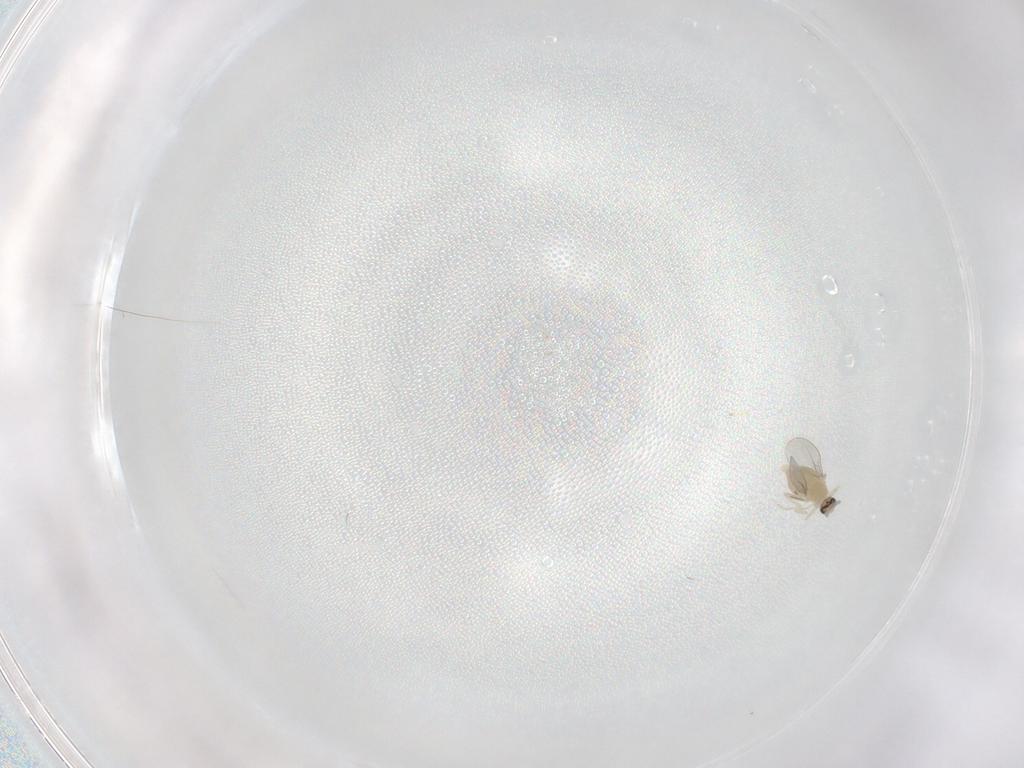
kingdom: Animalia
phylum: Arthropoda
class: Insecta
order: Diptera
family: Cecidomyiidae
